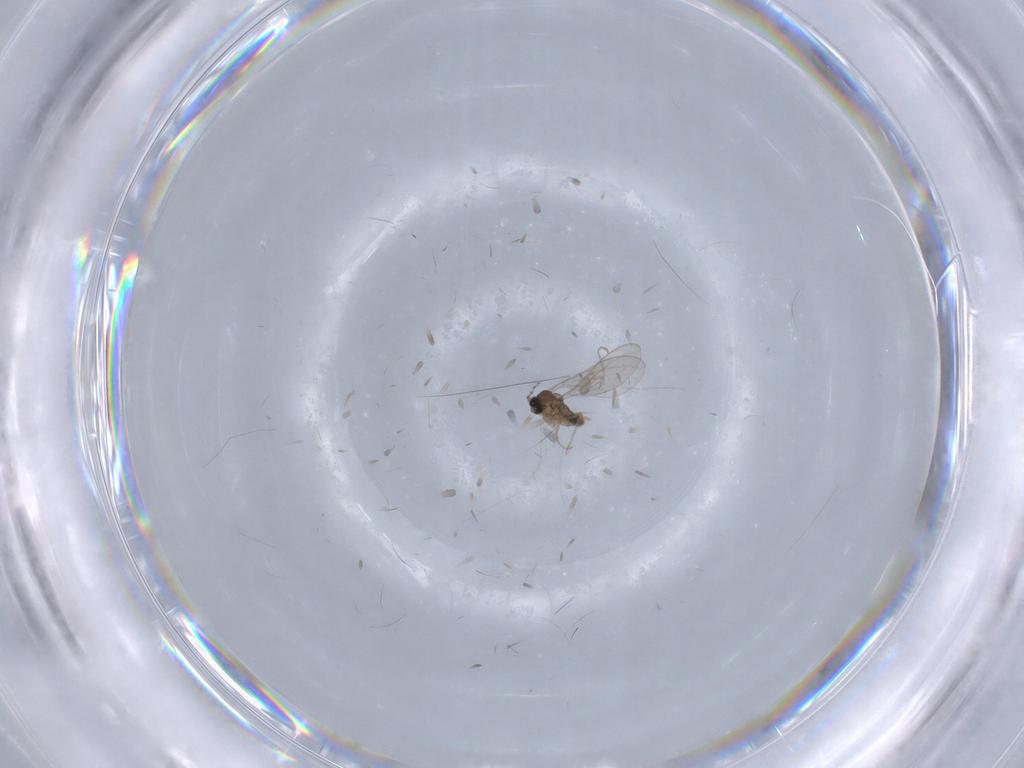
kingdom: Animalia
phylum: Arthropoda
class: Insecta
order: Diptera
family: Cecidomyiidae
